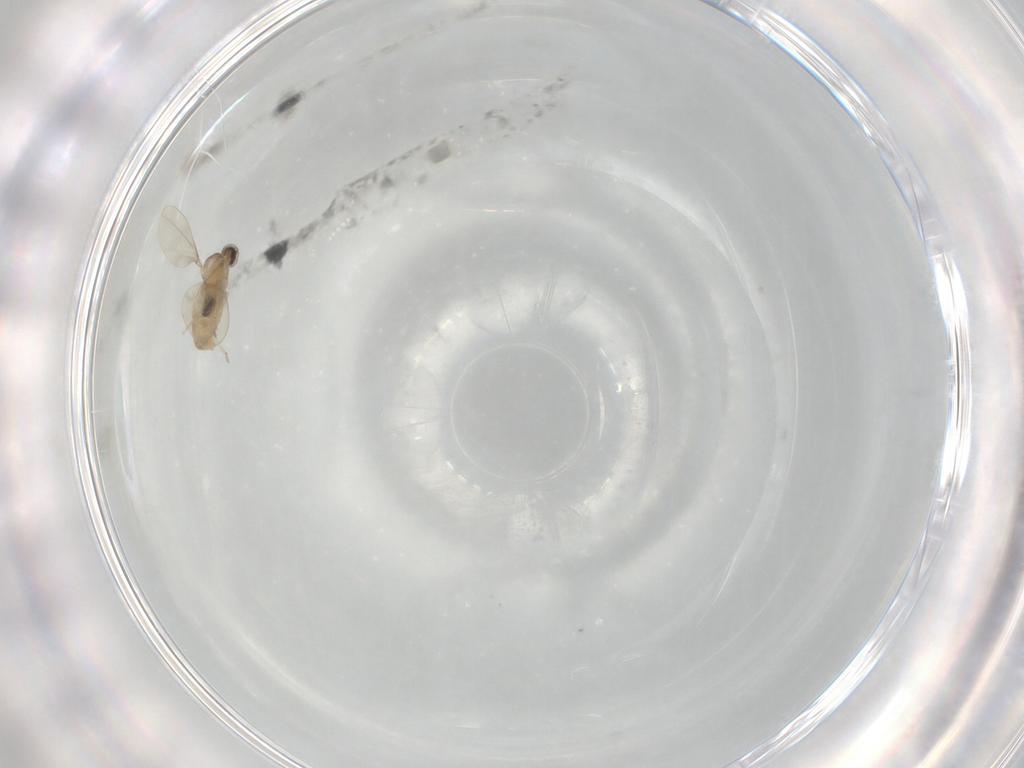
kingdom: Animalia
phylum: Arthropoda
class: Insecta
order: Diptera
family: Cecidomyiidae
